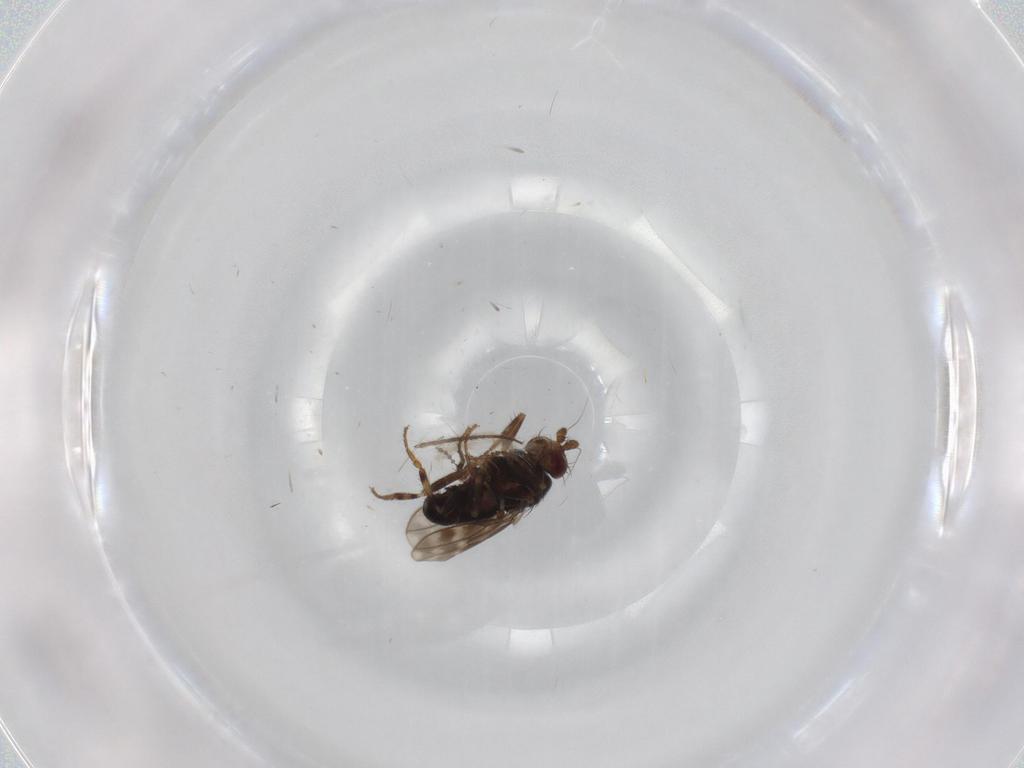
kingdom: Animalia
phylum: Arthropoda
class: Insecta
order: Diptera
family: Sphaeroceridae
